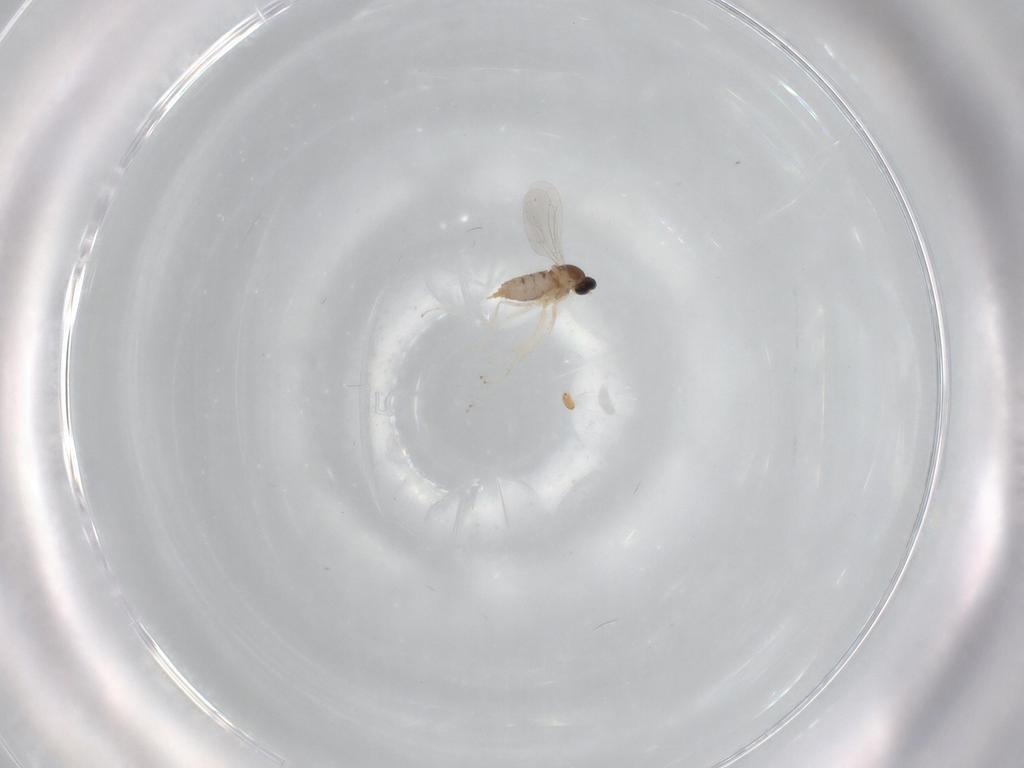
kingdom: Animalia
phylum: Arthropoda
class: Insecta
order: Diptera
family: Cecidomyiidae
